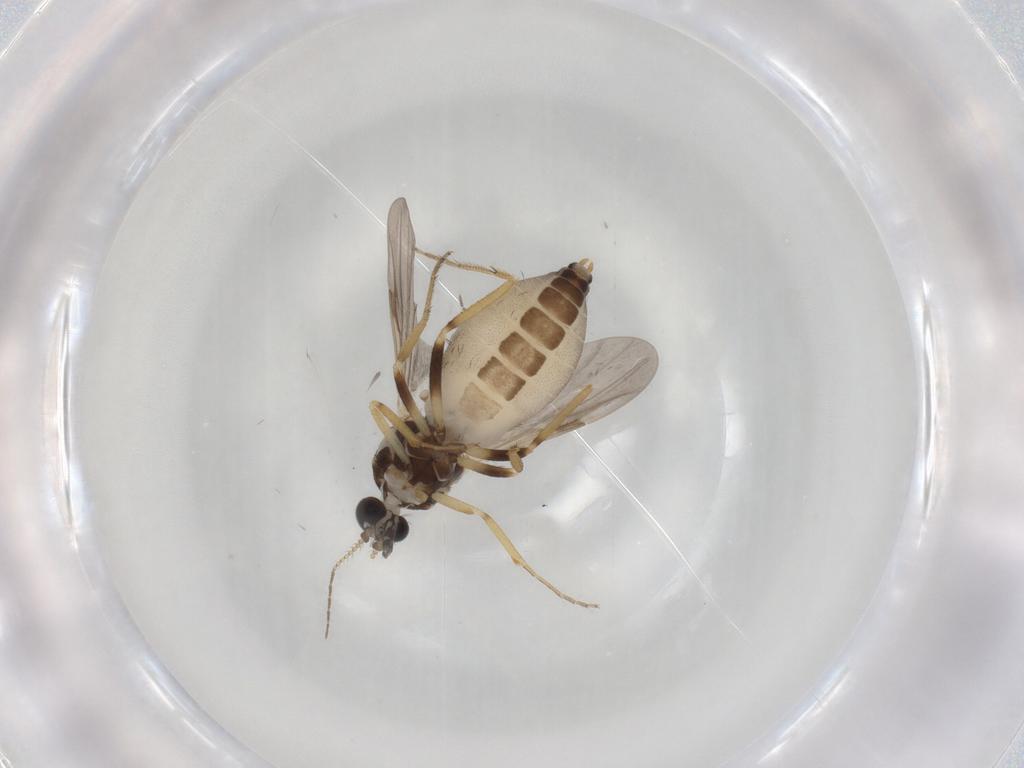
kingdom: Animalia
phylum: Arthropoda
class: Insecta
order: Diptera
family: Ceratopogonidae
